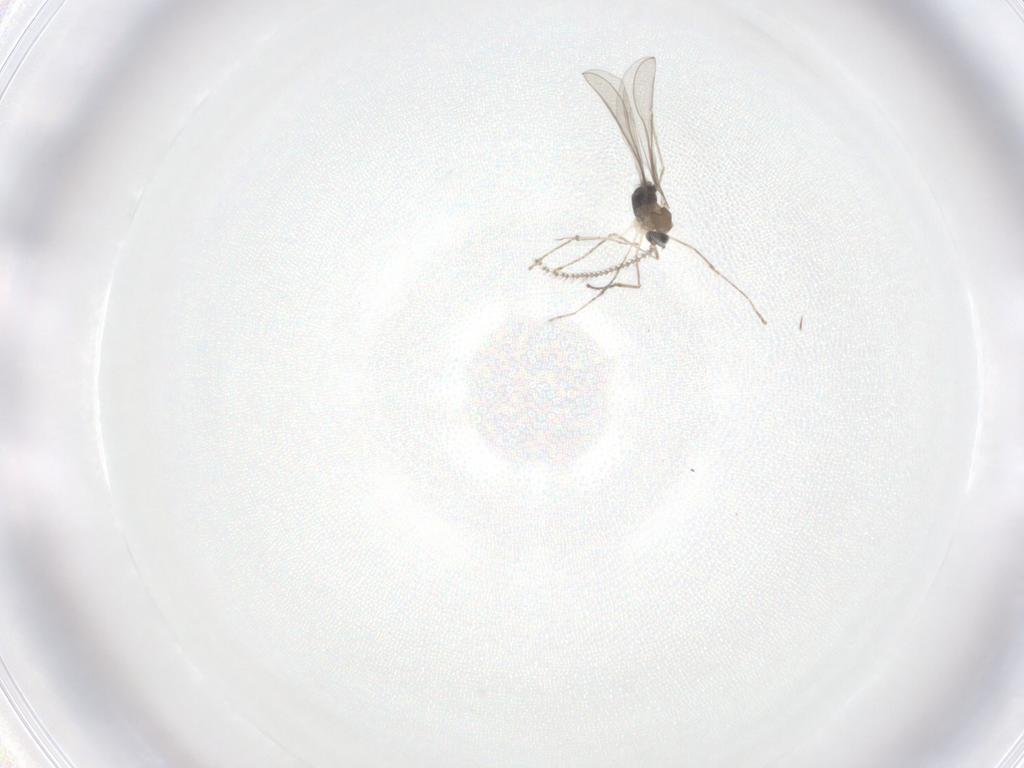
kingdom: Animalia
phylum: Arthropoda
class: Insecta
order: Diptera
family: Cecidomyiidae
